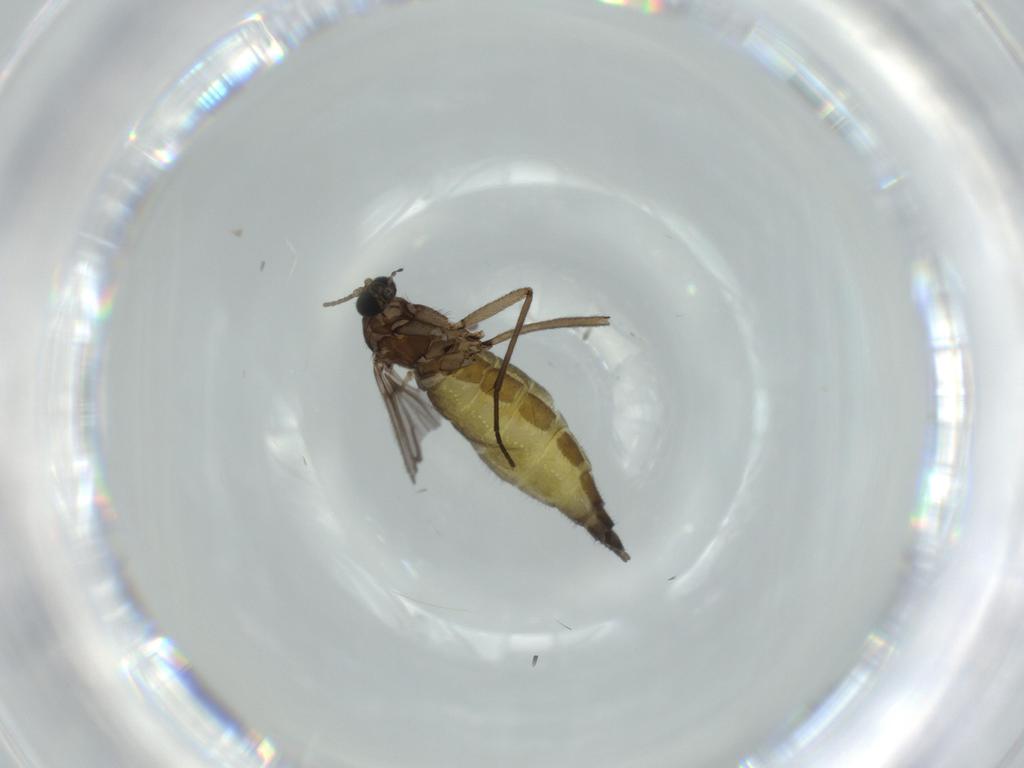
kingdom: Animalia
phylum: Arthropoda
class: Insecta
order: Diptera
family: Sciaridae
